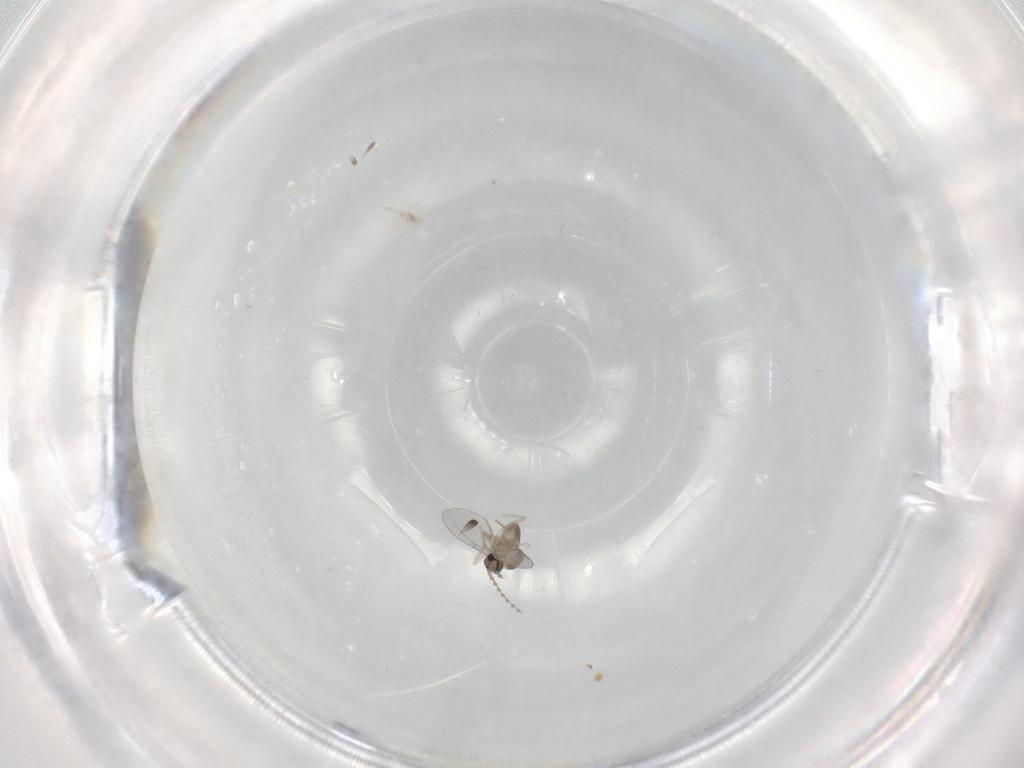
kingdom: Animalia
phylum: Arthropoda
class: Insecta
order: Diptera
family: Cecidomyiidae
